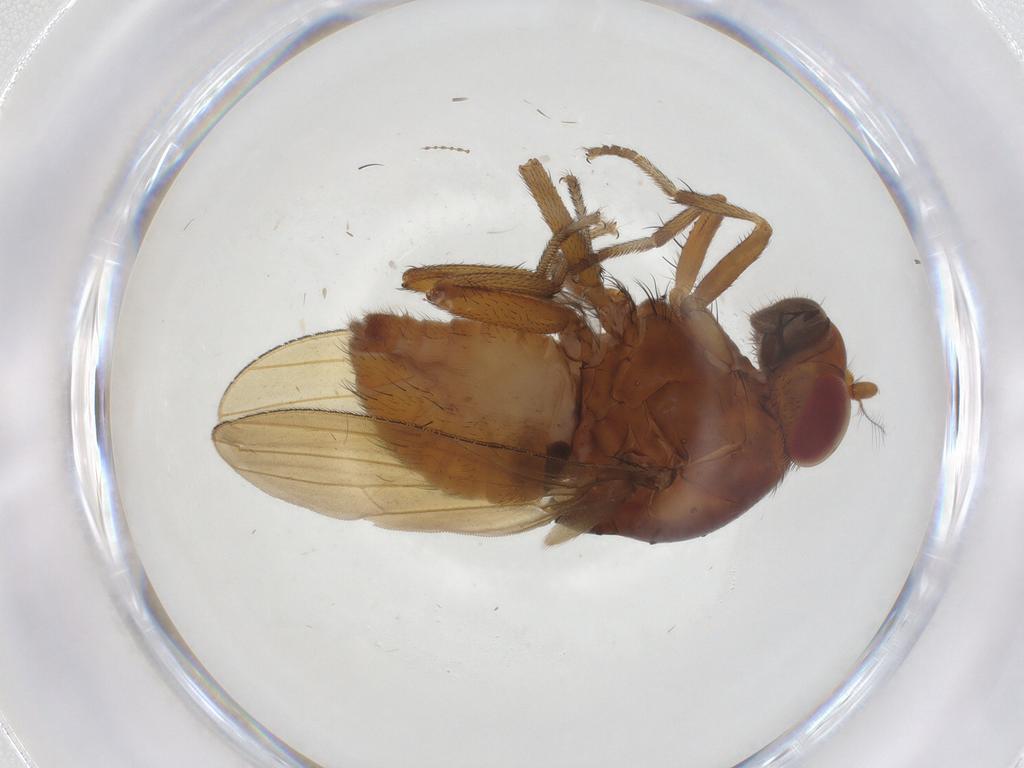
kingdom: Animalia
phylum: Arthropoda
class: Insecta
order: Diptera
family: Lauxaniidae
